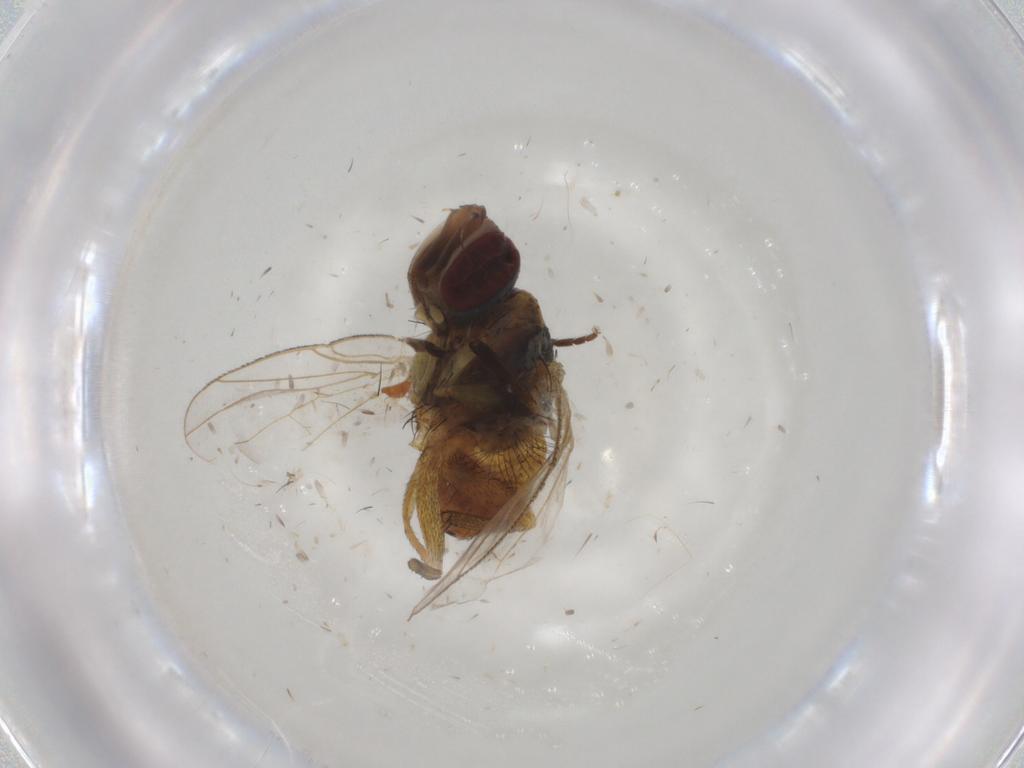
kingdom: Animalia
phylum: Arthropoda
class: Insecta
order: Diptera
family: Muscidae
